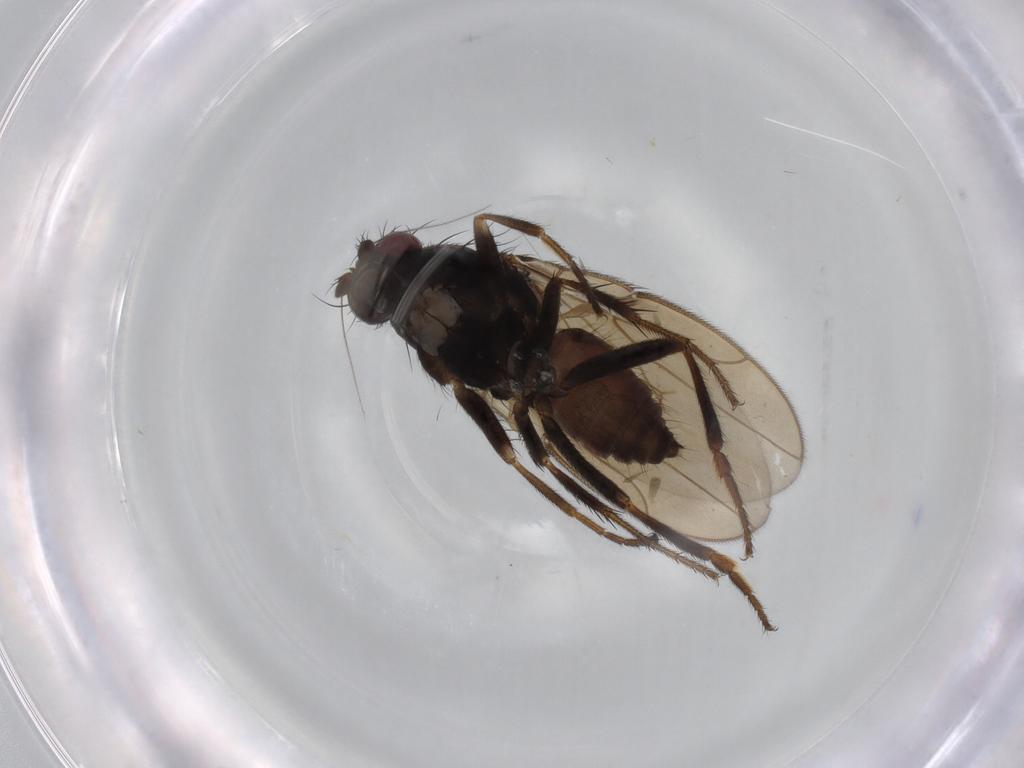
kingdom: Animalia
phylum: Arthropoda
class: Insecta
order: Diptera
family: Sphaeroceridae
